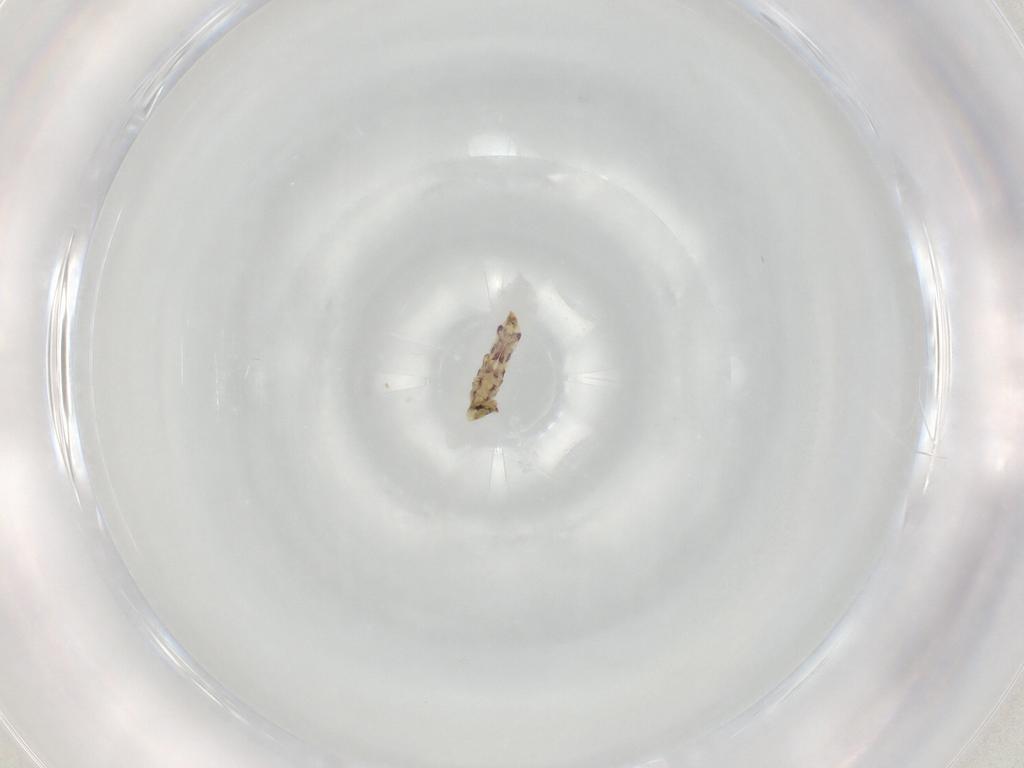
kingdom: Animalia
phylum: Arthropoda
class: Collembola
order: Entomobryomorpha
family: Entomobryidae
